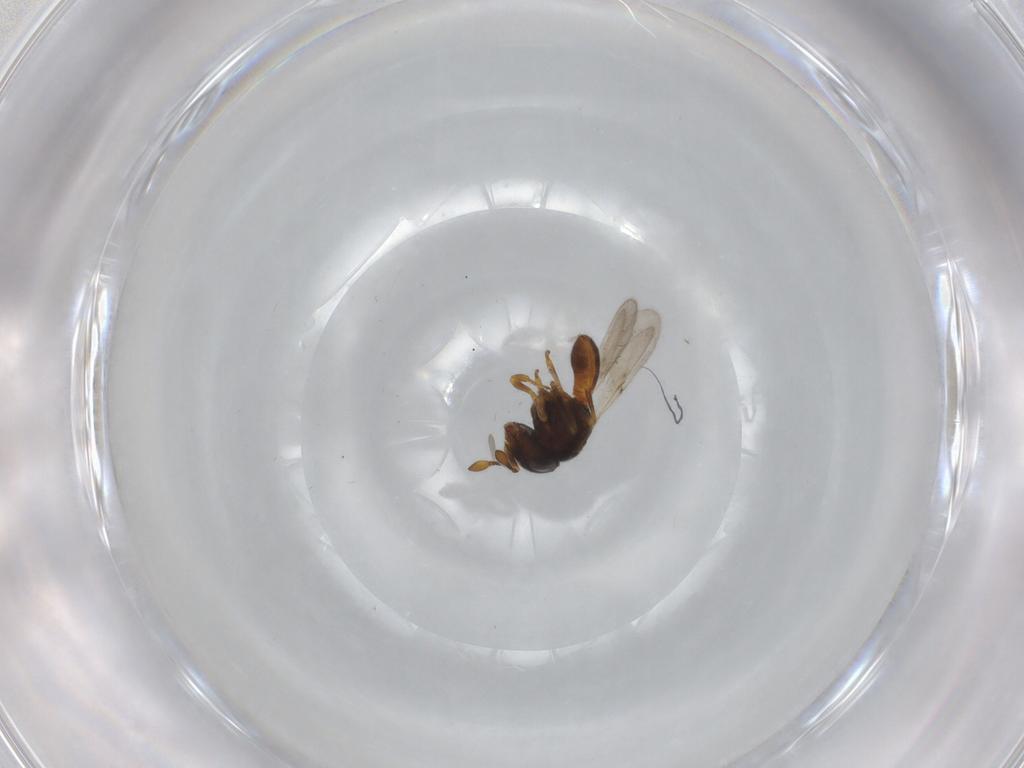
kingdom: Animalia
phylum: Arthropoda
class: Insecta
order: Hymenoptera
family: Scelionidae
